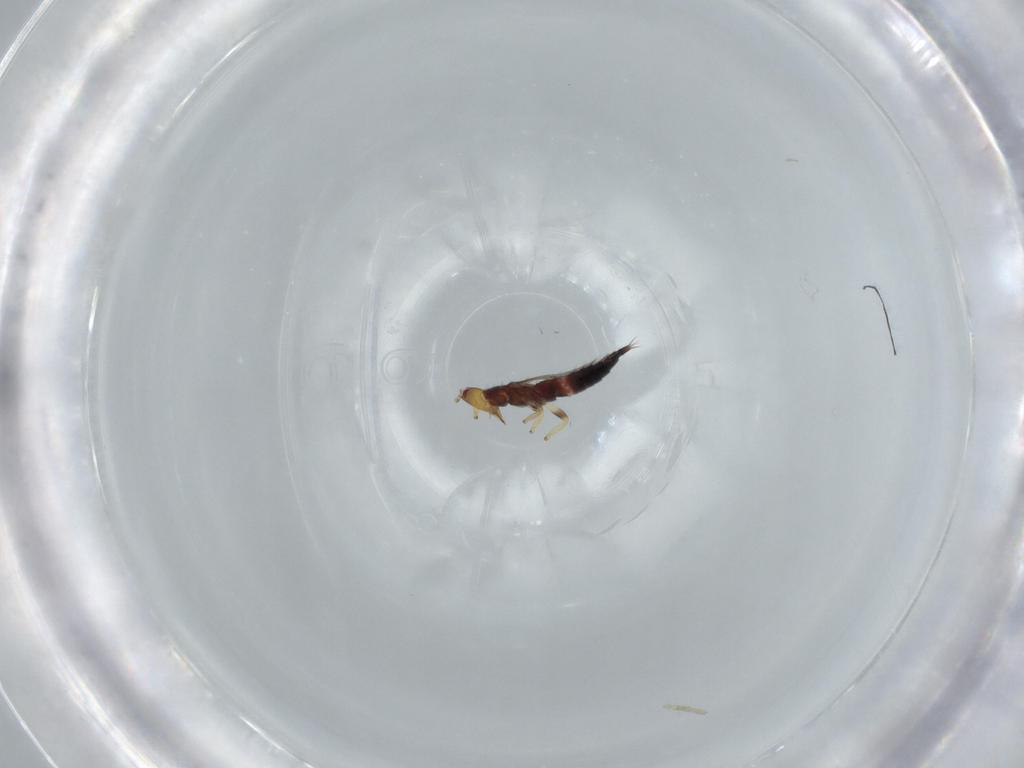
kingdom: Animalia
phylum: Arthropoda
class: Insecta
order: Thysanoptera
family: Phlaeothripidae
